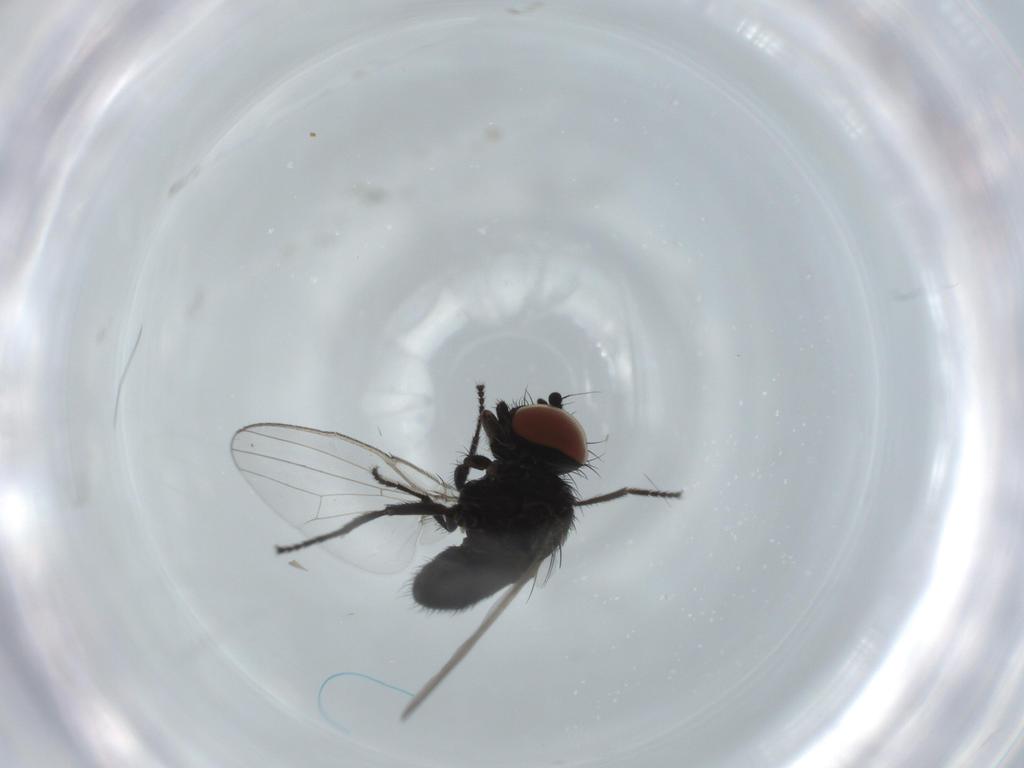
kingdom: Animalia
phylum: Arthropoda
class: Insecta
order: Diptera
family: Milichiidae
